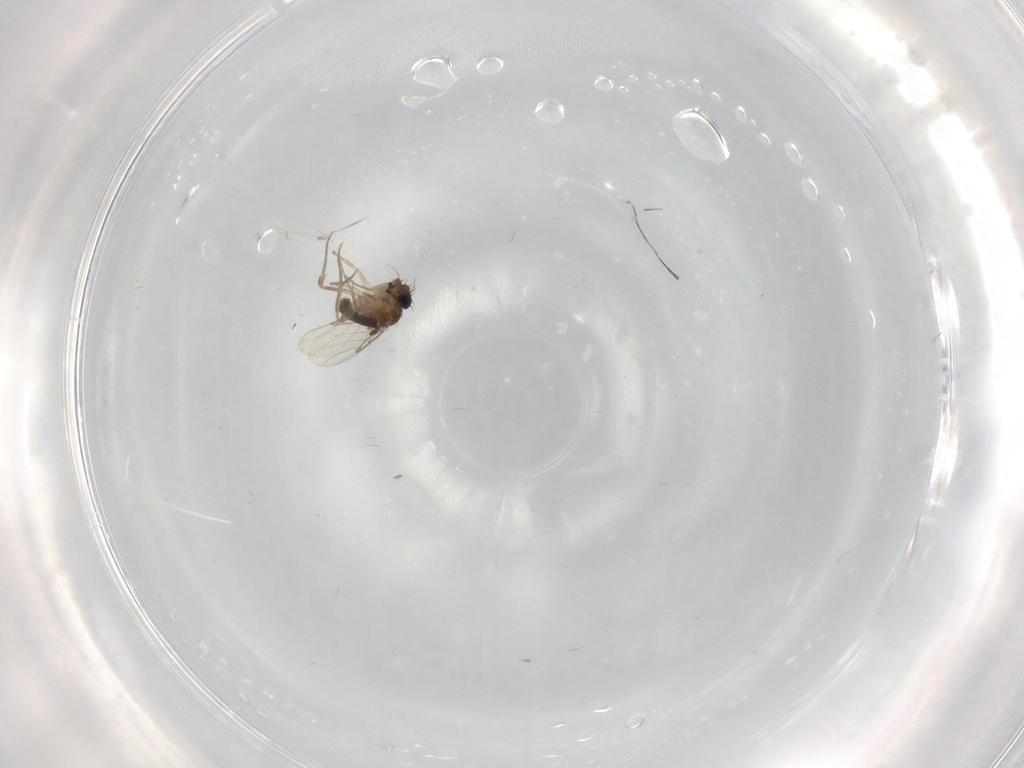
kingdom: Animalia
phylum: Arthropoda
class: Insecta
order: Diptera
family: Cecidomyiidae
